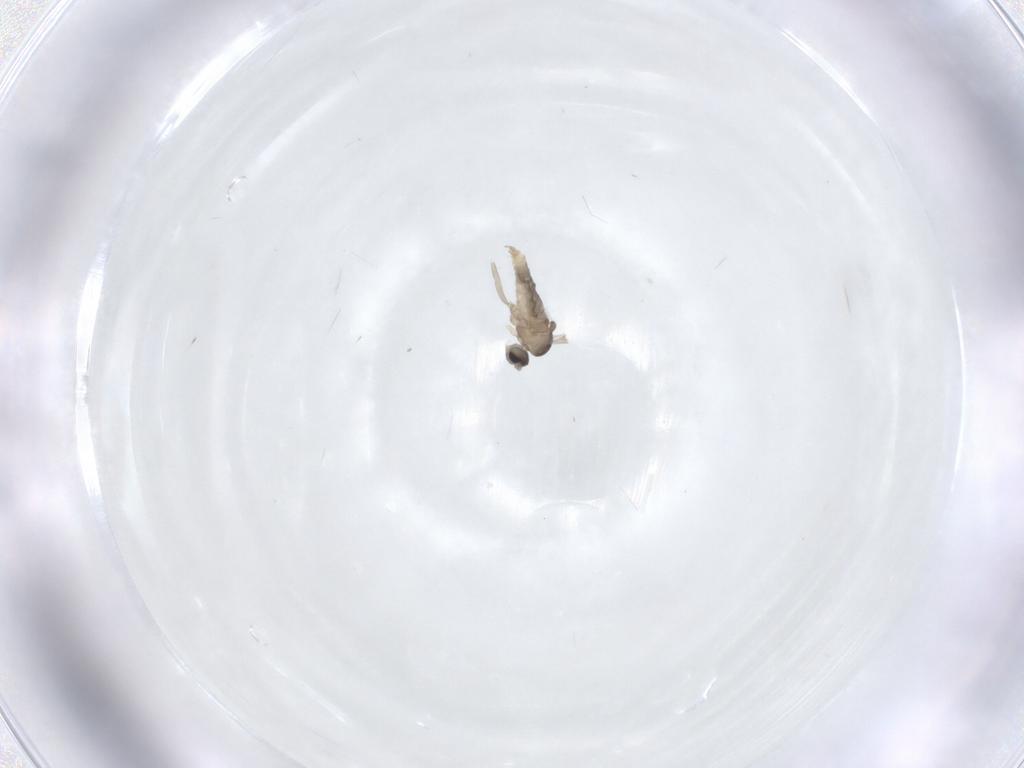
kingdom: Animalia
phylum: Arthropoda
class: Insecta
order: Diptera
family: Cecidomyiidae
